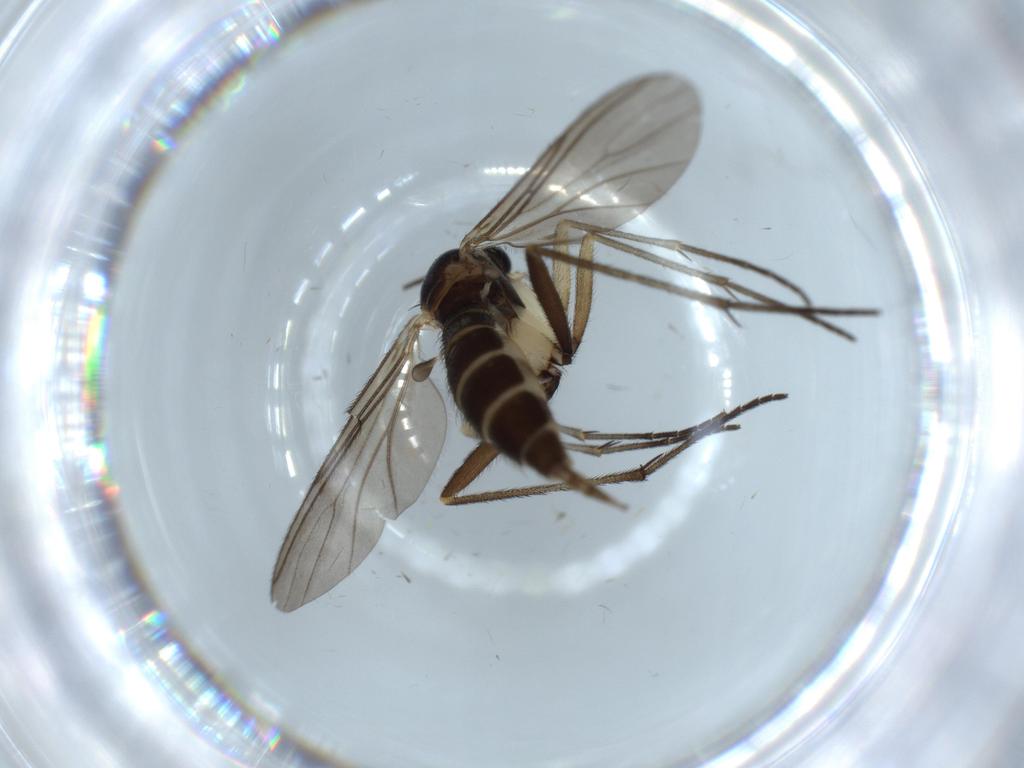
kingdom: Animalia
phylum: Arthropoda
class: Insecta
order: Diptera
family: Sciaridae
